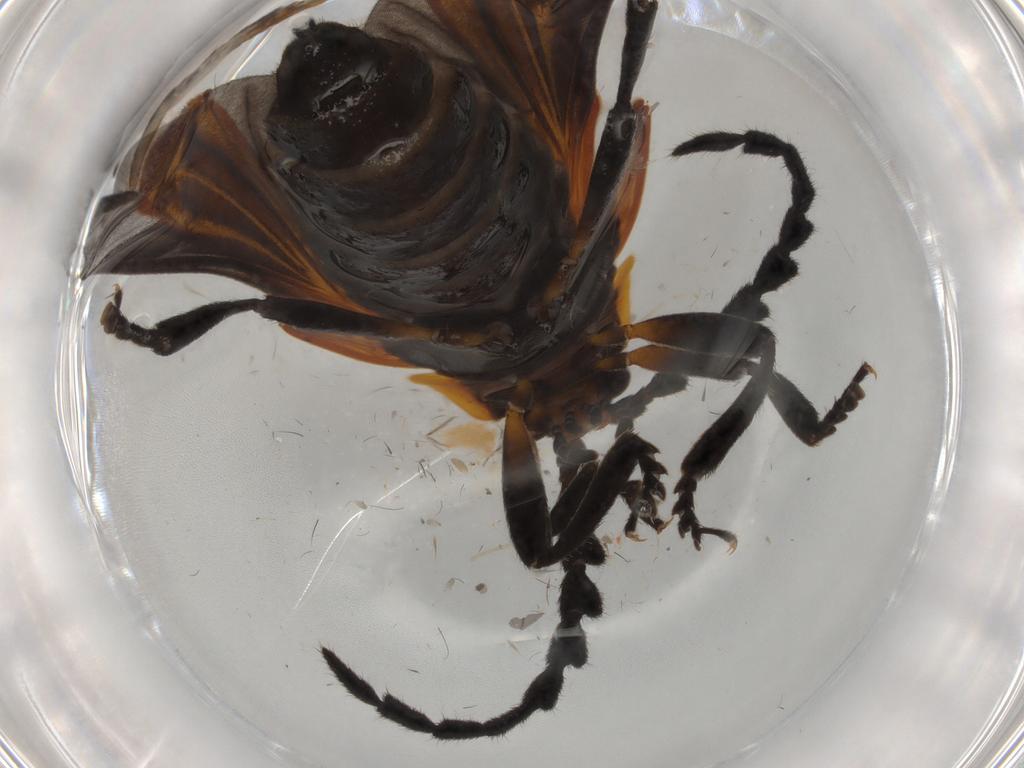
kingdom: Animalia
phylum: Arthropoda
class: Insecta
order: Coleoptera
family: Lycidae
